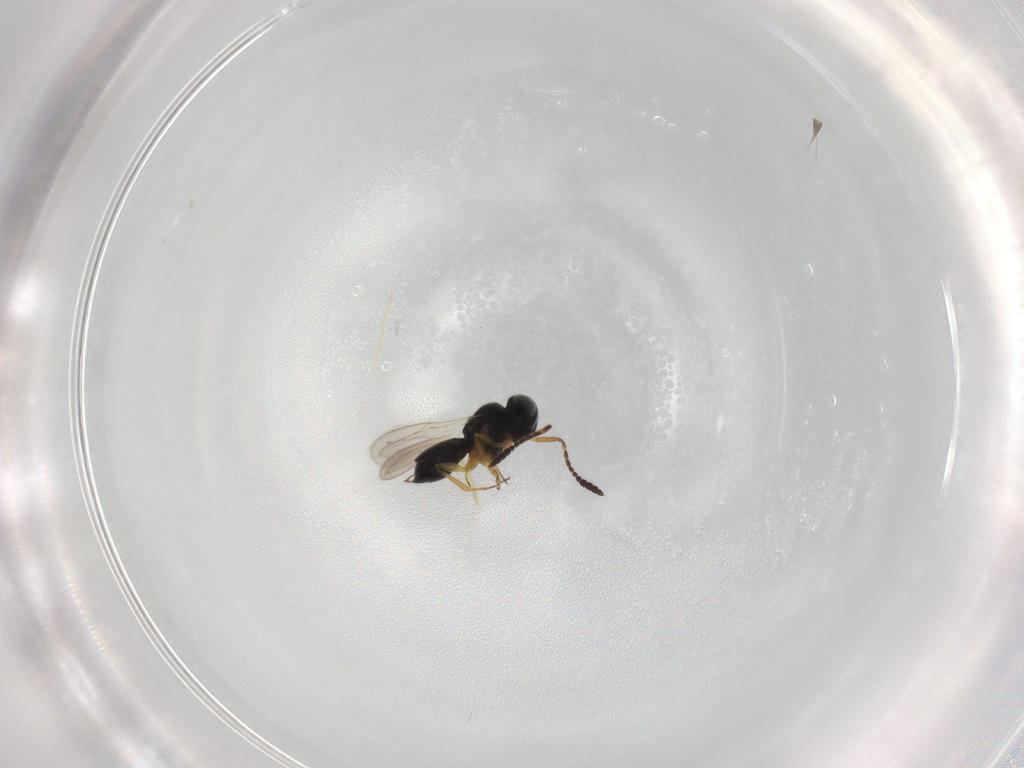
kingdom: Animalia
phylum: Arthropoda
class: Insecta
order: Hymenoptera
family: Scelionidae
